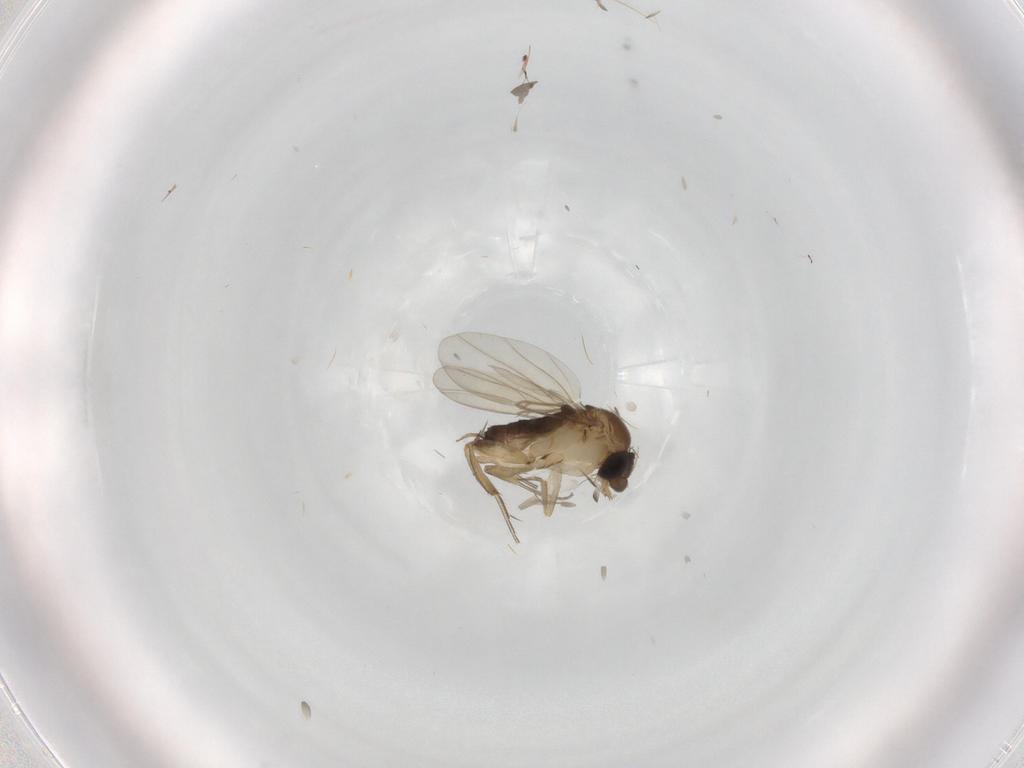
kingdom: Animalia
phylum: Arthropoda
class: Insecta
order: Diptera
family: Phoridae
